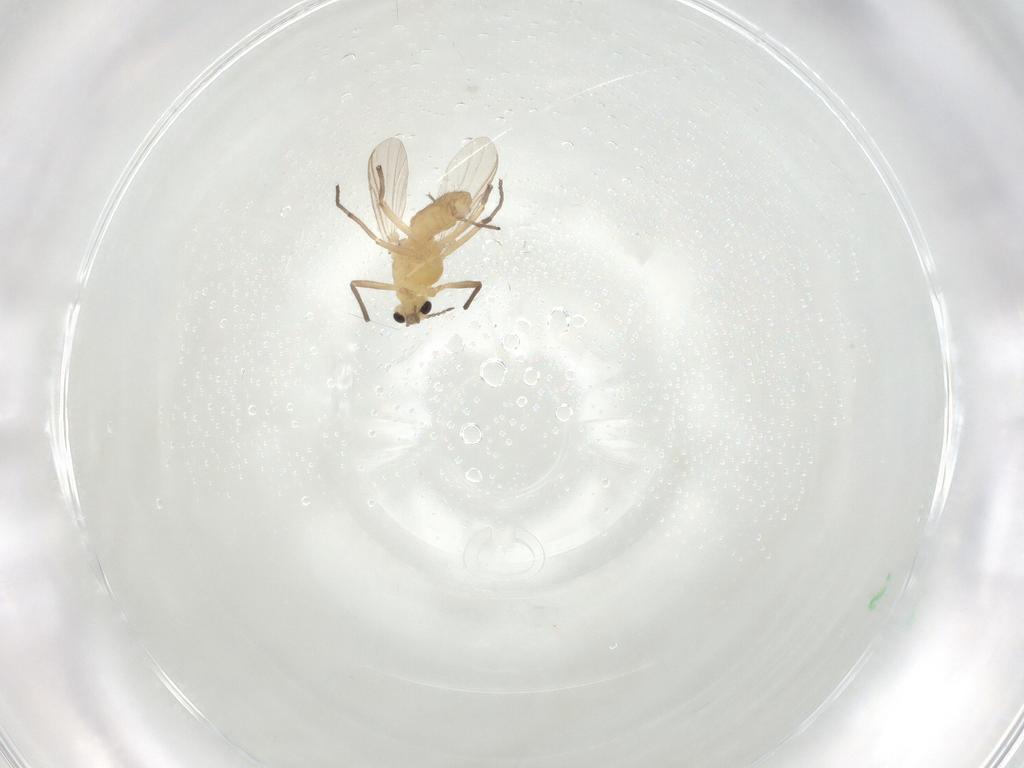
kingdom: Animalia
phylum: Arthropoda
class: Insecta
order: Diptera
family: Chironomidae
